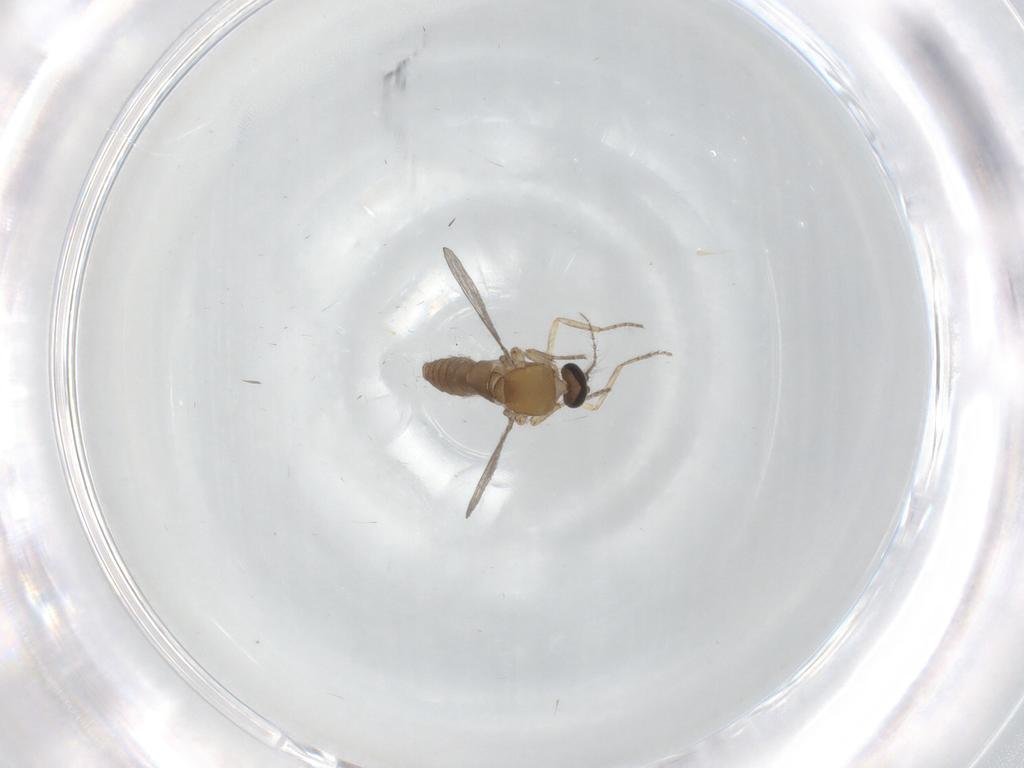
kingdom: Animalia
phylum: Arthropoda
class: Insecta
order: Diptera
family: Ceratopogonidae
